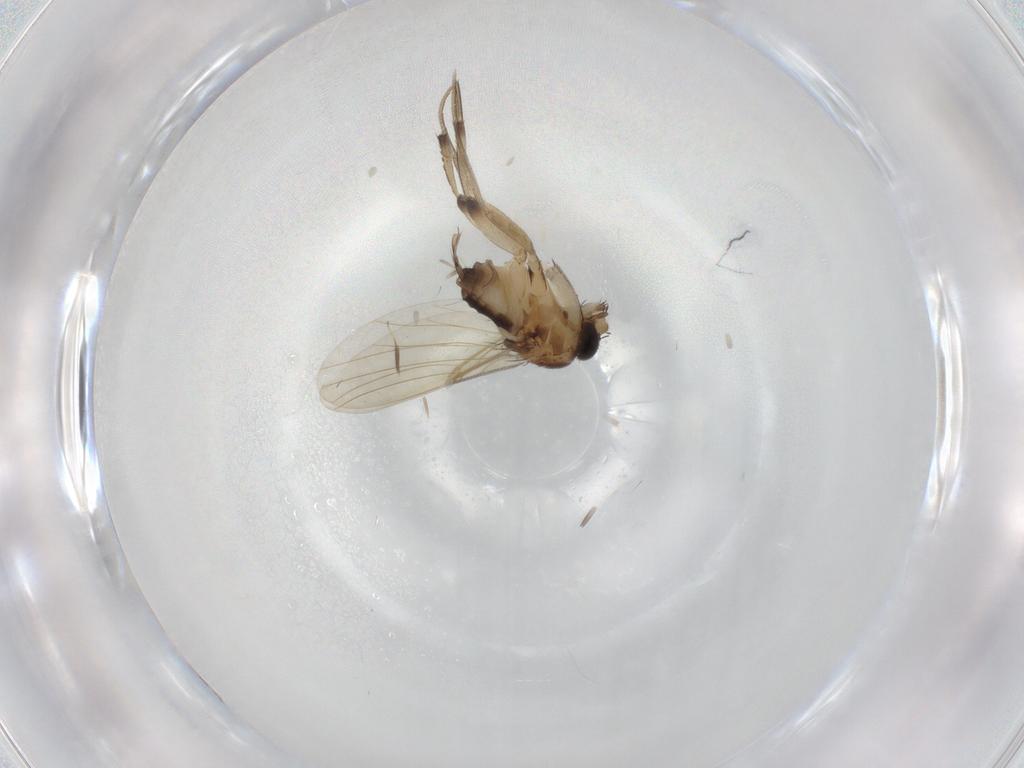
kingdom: Animalia
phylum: Arthropoda
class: Insecta
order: Diptera
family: Phoridae
